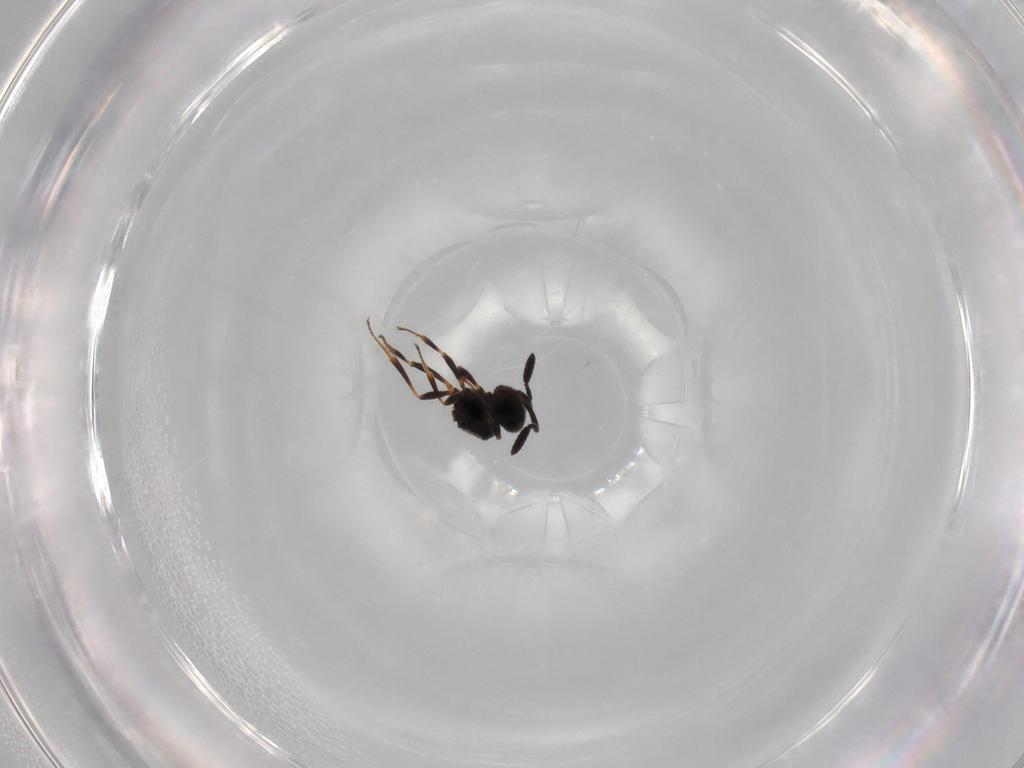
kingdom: Animalia
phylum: Arthropoda
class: Insecta
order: Hymenoptera
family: Scelionidae
